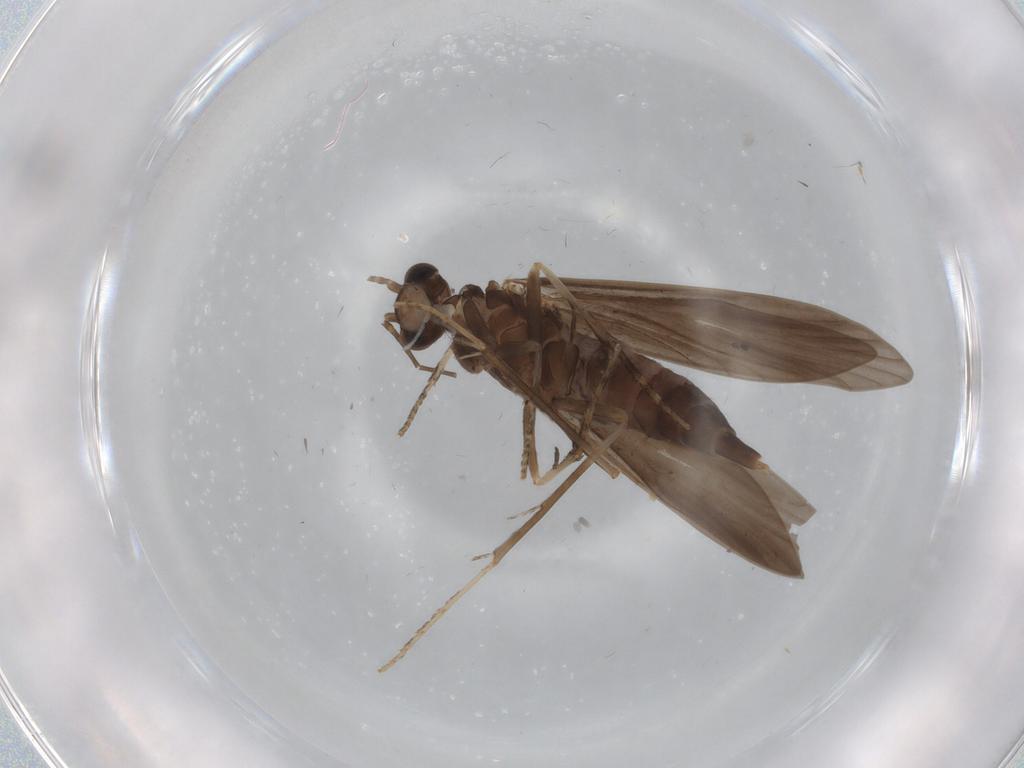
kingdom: Animalia
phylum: Arthropoda
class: Insecta
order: Trichoptera
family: Xiphocentronidae
